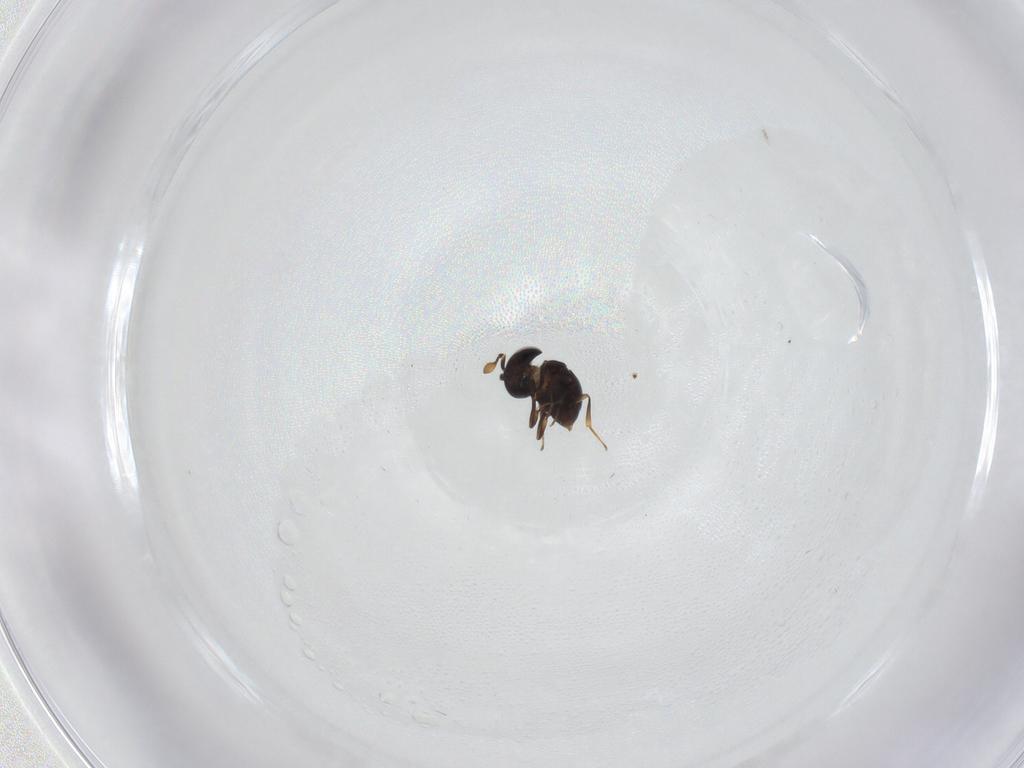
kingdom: Animalia
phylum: Arthropoda
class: Insecta
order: Hymenoptera
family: Scelionidae
